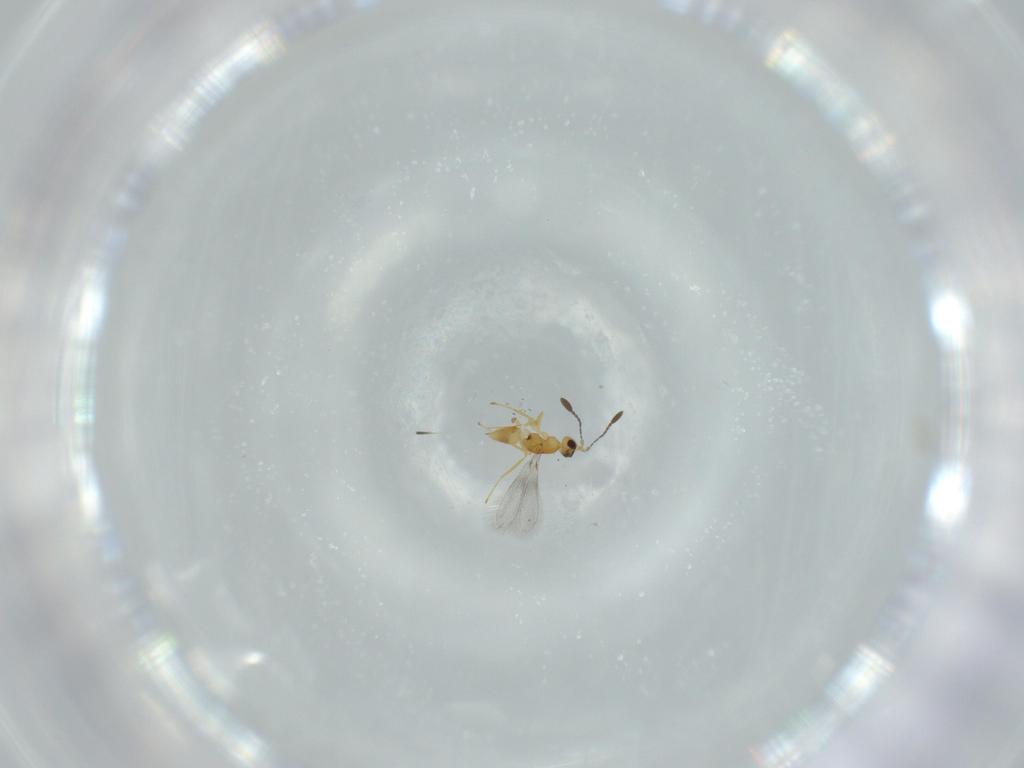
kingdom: Animalia
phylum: Arthropoda
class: Insecta
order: Hymenoptera
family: Mymaridae
